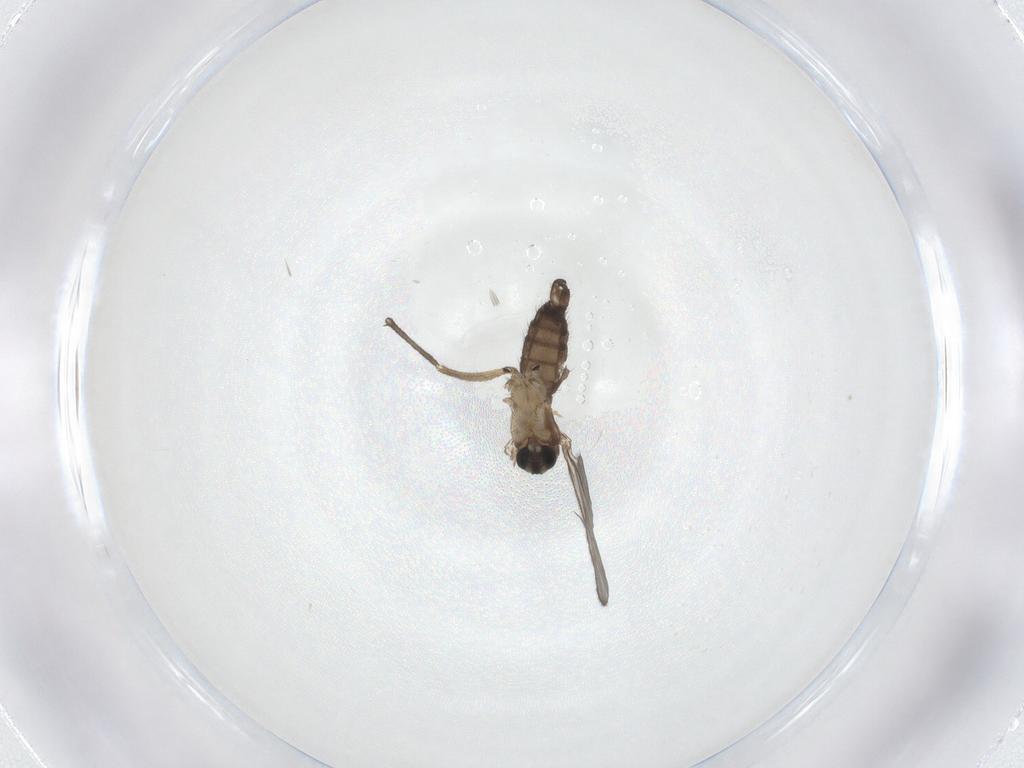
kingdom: Animalia
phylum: Arthropoda
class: Insecta
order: Diptera
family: Sciaridae
